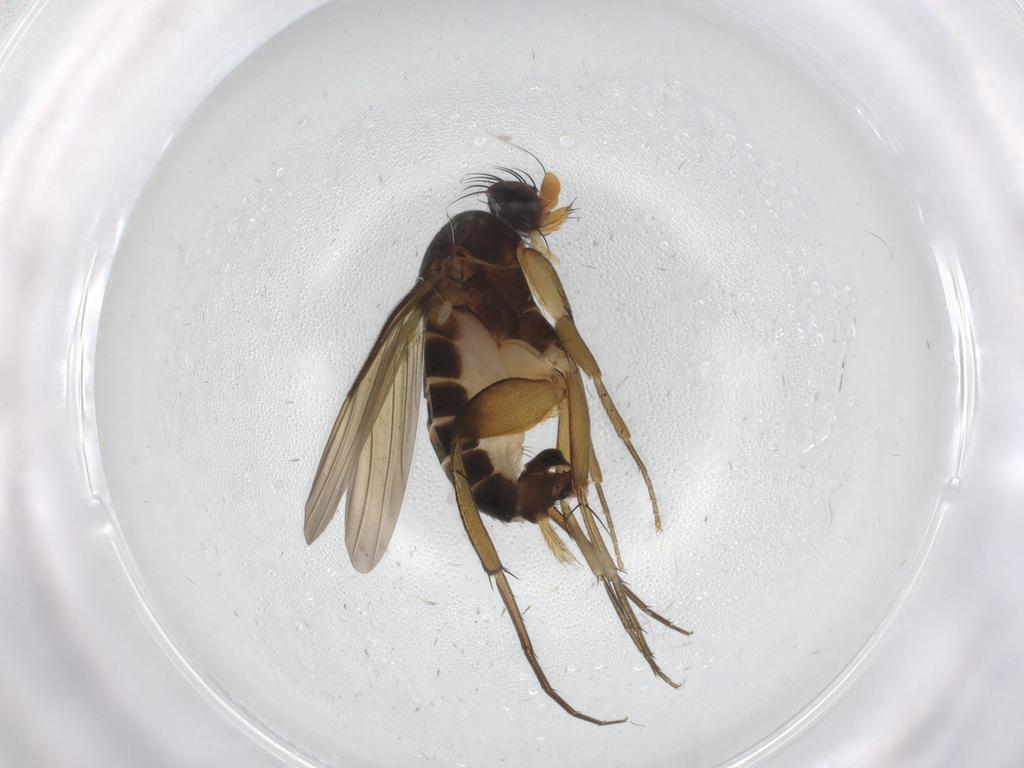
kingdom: Animalia
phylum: Arthropoda
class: Insecta
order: Diptera
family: Phoridae
